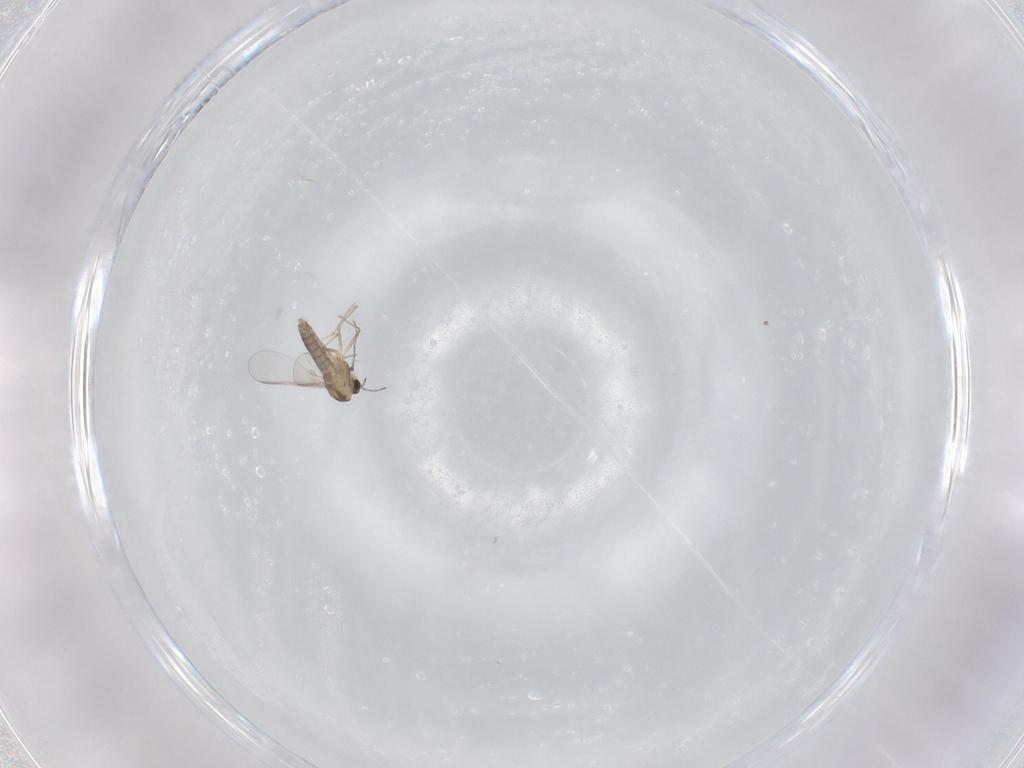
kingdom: Animalia
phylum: Arthropoda
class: Insecta
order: Diptera
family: Chironomidae
